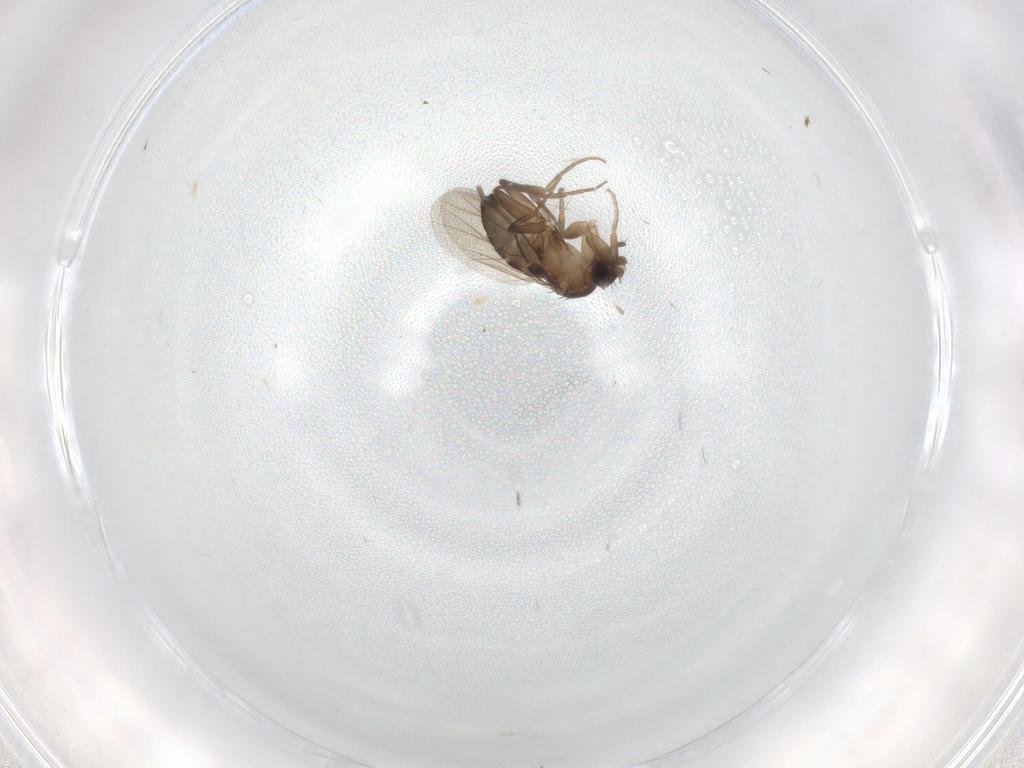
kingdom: Animalia
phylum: Arthropoda
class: Insecta
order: Diptera
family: Phoridae
